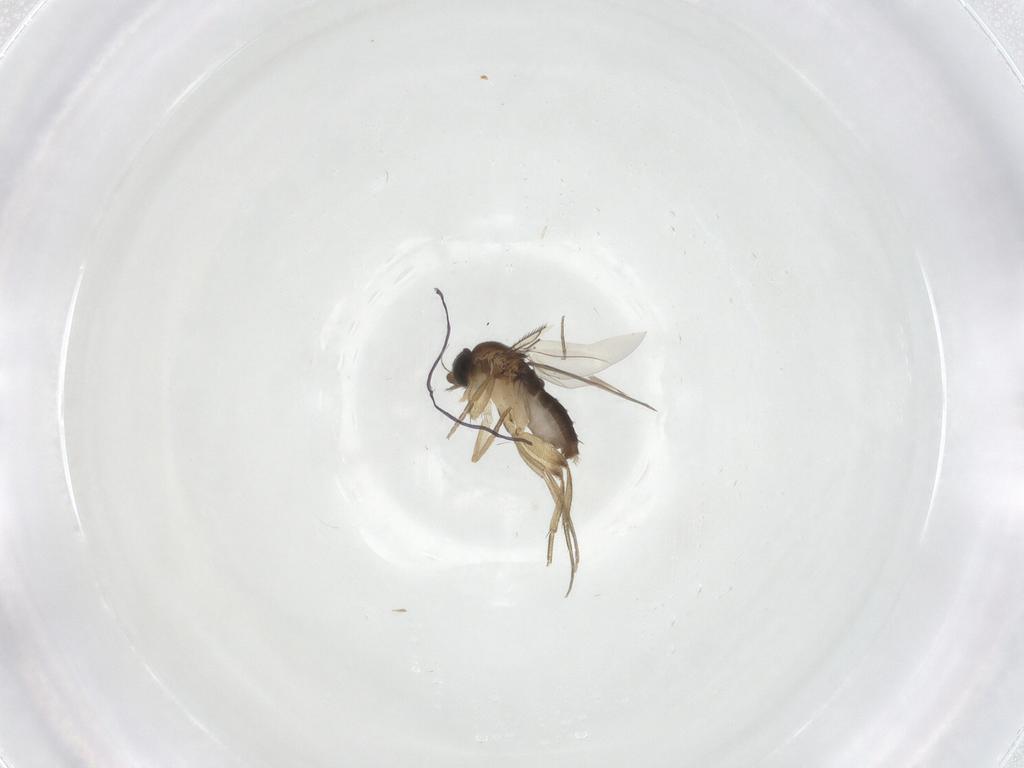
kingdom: Animalia
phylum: Arthropoda
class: Insecta
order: Diptera
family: Phoridae
